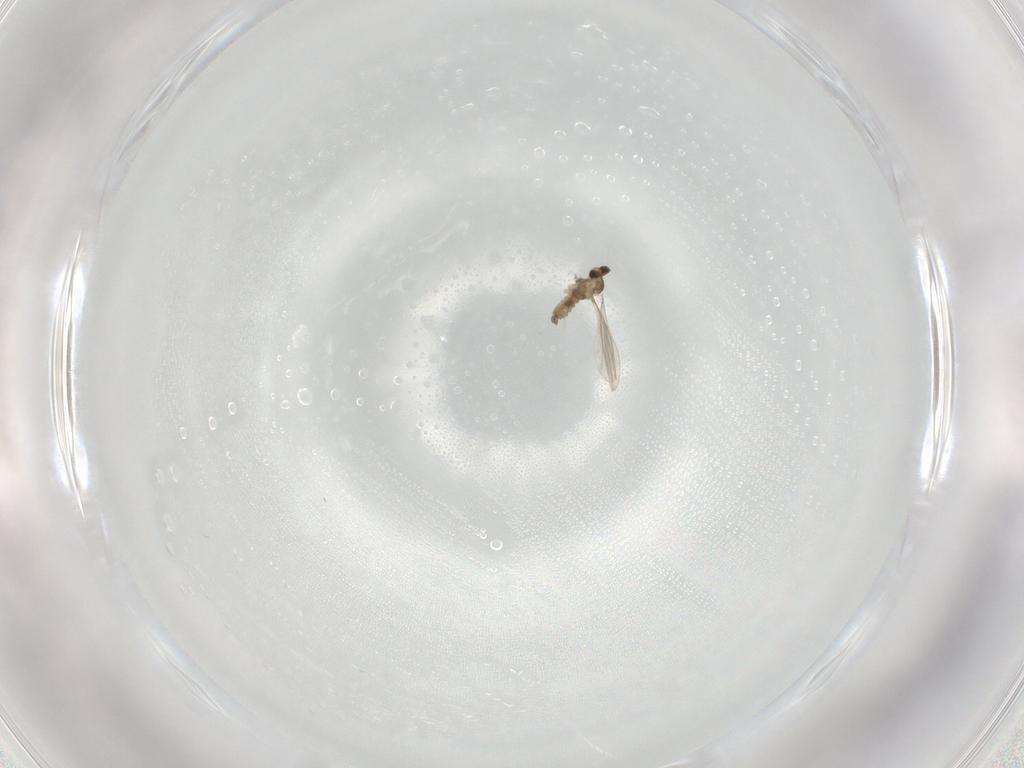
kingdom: Animalia
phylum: Arthropoda
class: Insecta
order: Diptera
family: Cecidomyiidae
